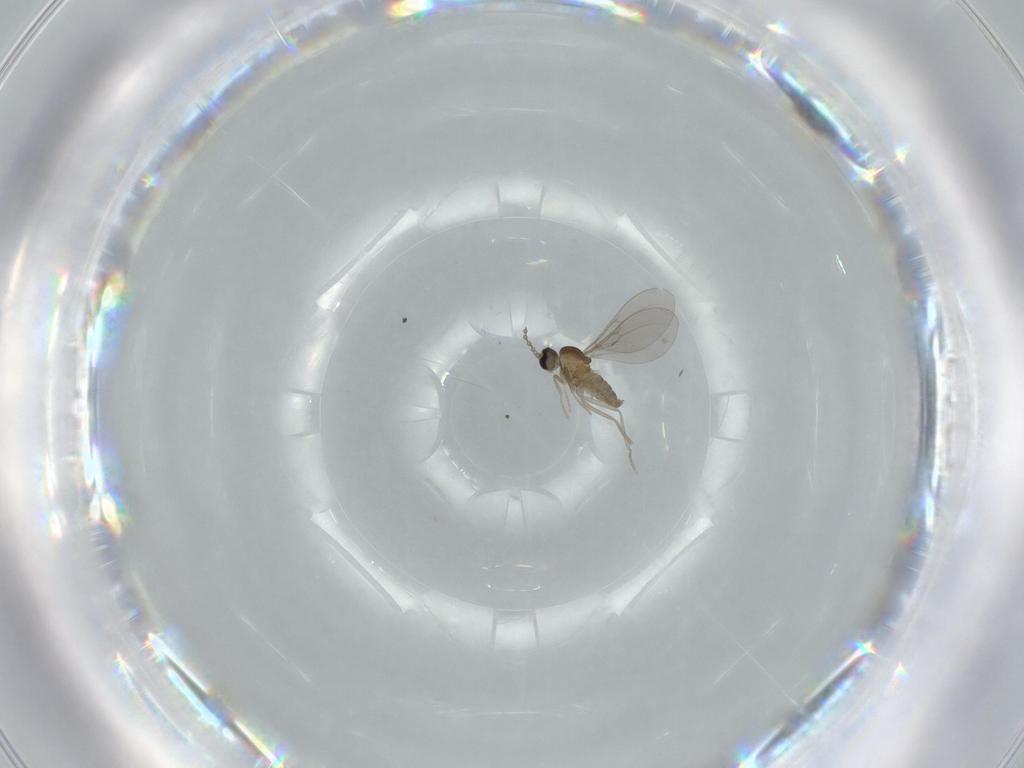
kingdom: Animalia
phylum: Arthropoda
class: Insecta
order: Diptera
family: Cecidomyiidae
